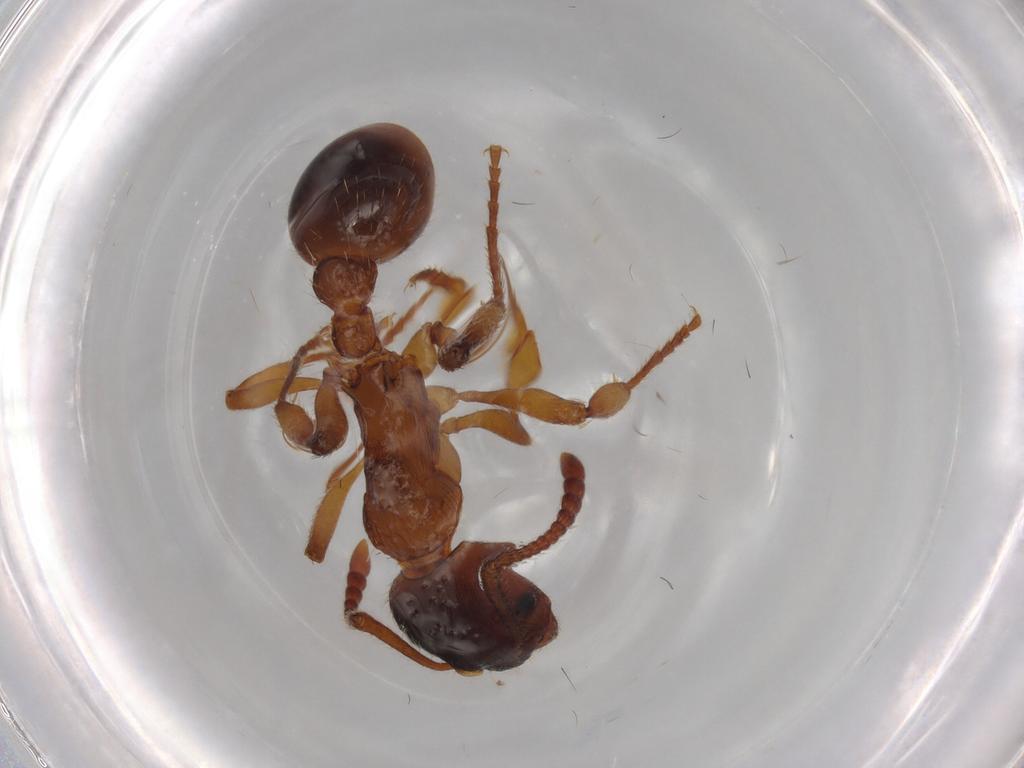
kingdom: Animalia
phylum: Arthropoda
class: Insecta
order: Hymenoptera
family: Formicidae
